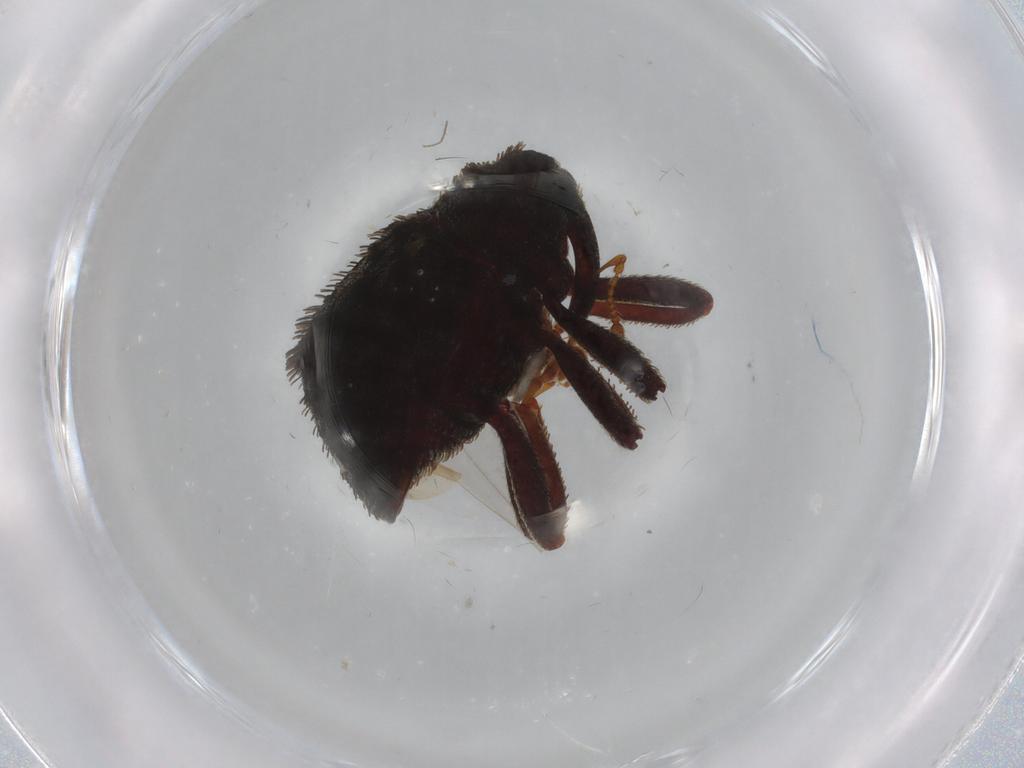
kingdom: Animalia
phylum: Arthropoda
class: Insecta
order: Coleoptera
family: Curculionidae
